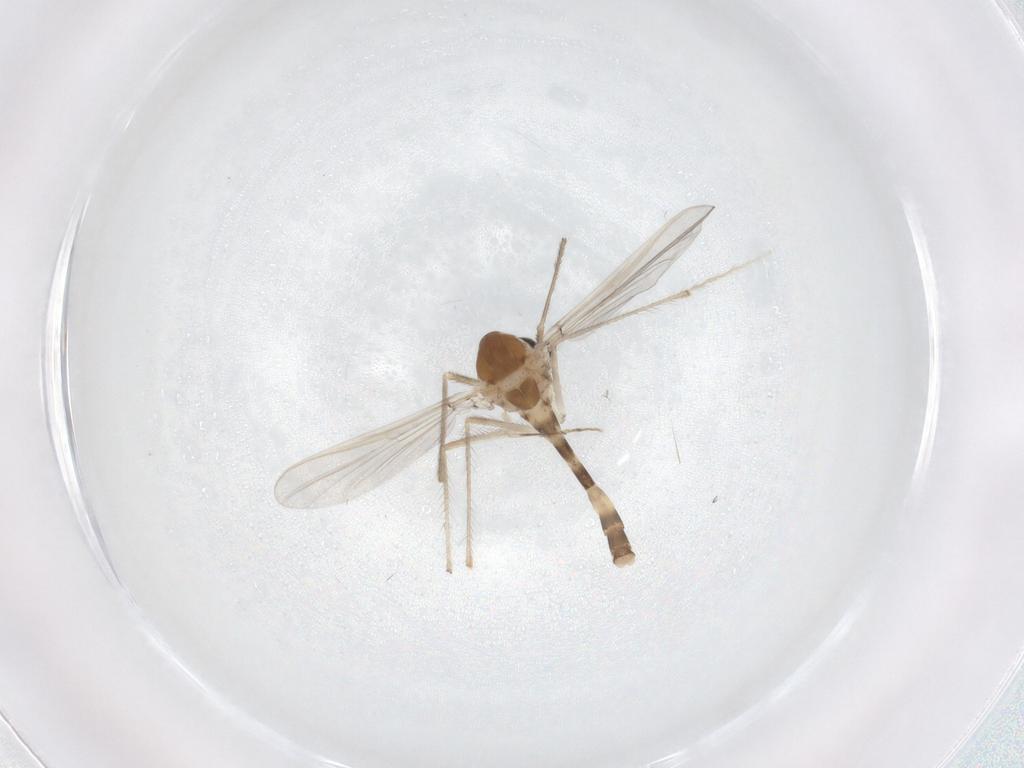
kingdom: Animalia
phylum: Arthropoda
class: Insecta
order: Diptera
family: Chironomidae
